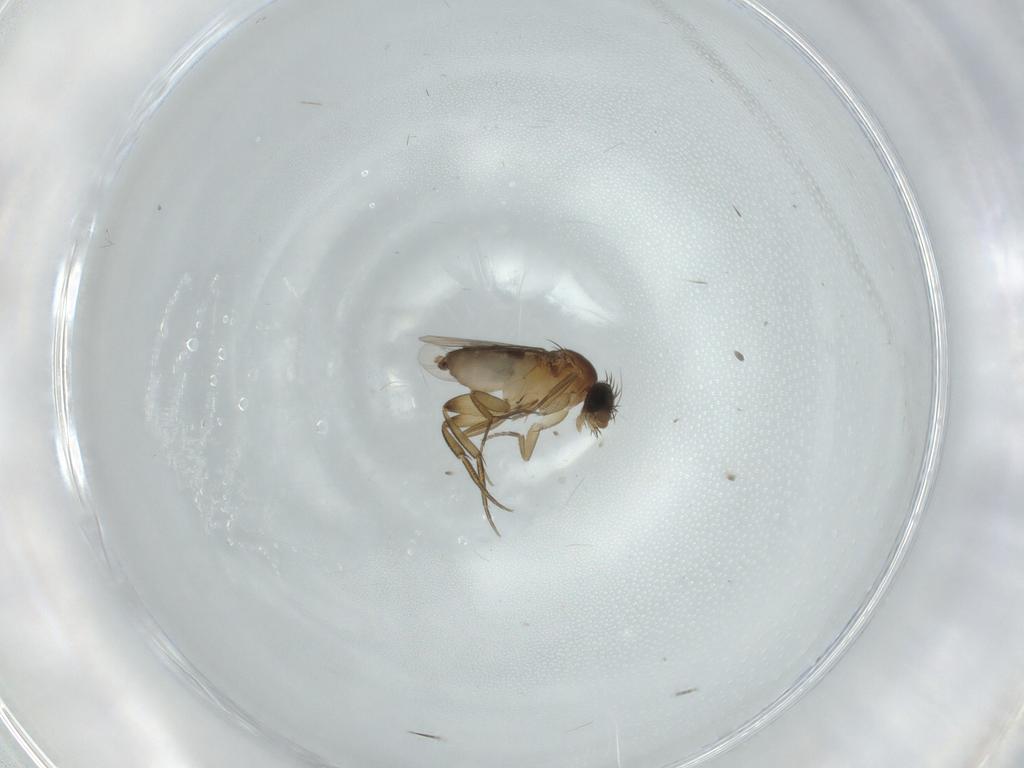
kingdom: Animalia
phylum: Arthropoda
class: Insecta
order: Diptera
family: Phoridae
